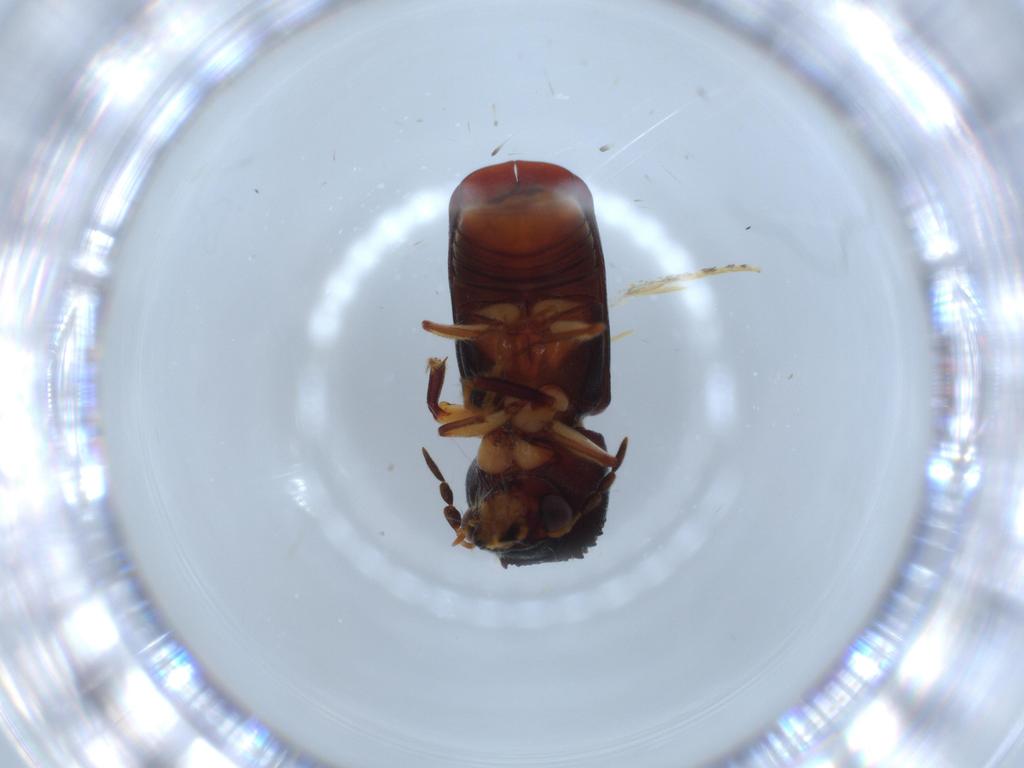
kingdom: Animalia
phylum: Arthropoda
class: Insecta
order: Coleoptera
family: Bostrichidae
